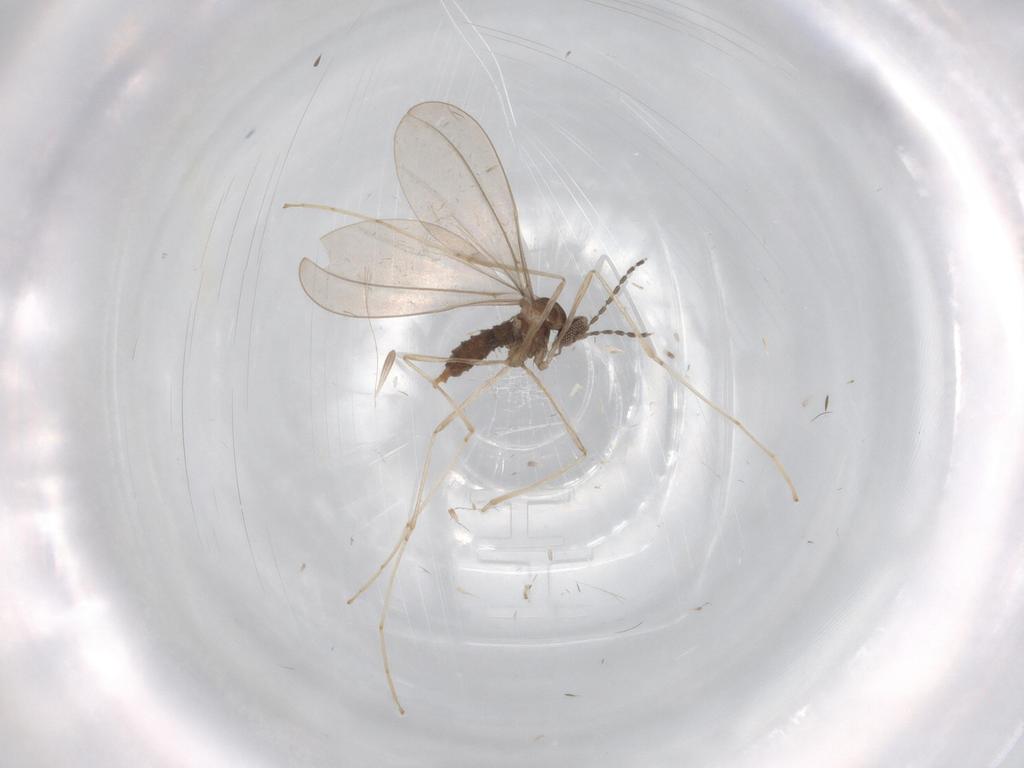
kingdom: Animalia
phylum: Arthropoda
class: Insecta
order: Diptera
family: Cecidomyiidae
